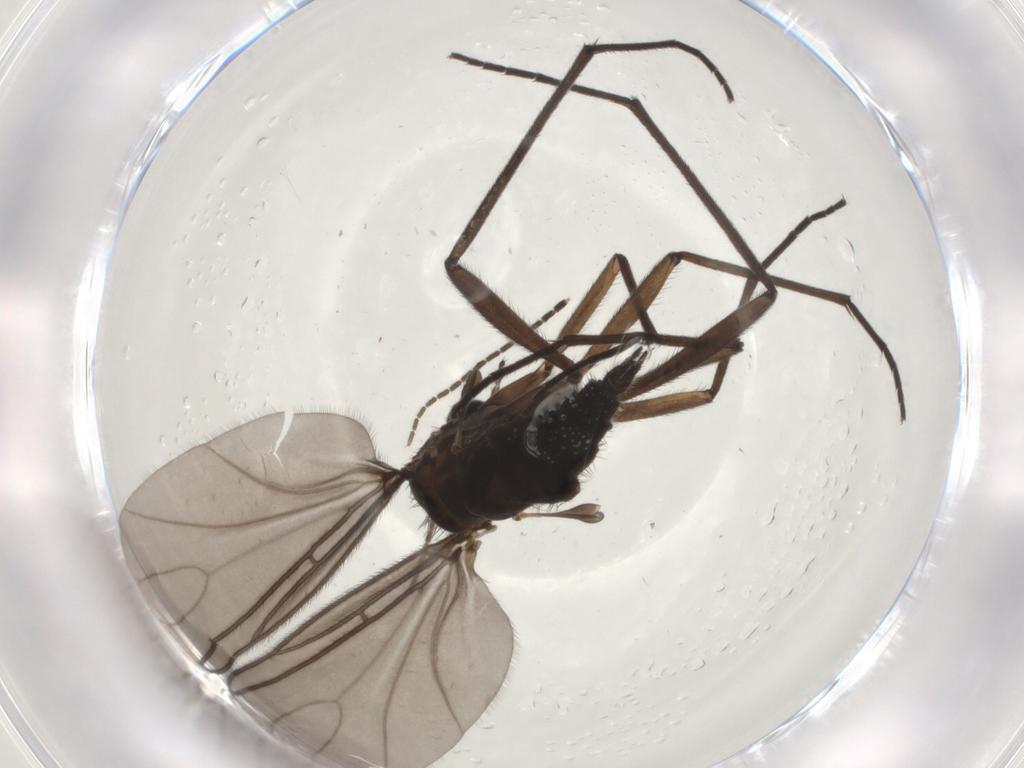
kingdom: Animalia
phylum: Arthropoda
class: Insecta
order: Diptera
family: Sciaridae
